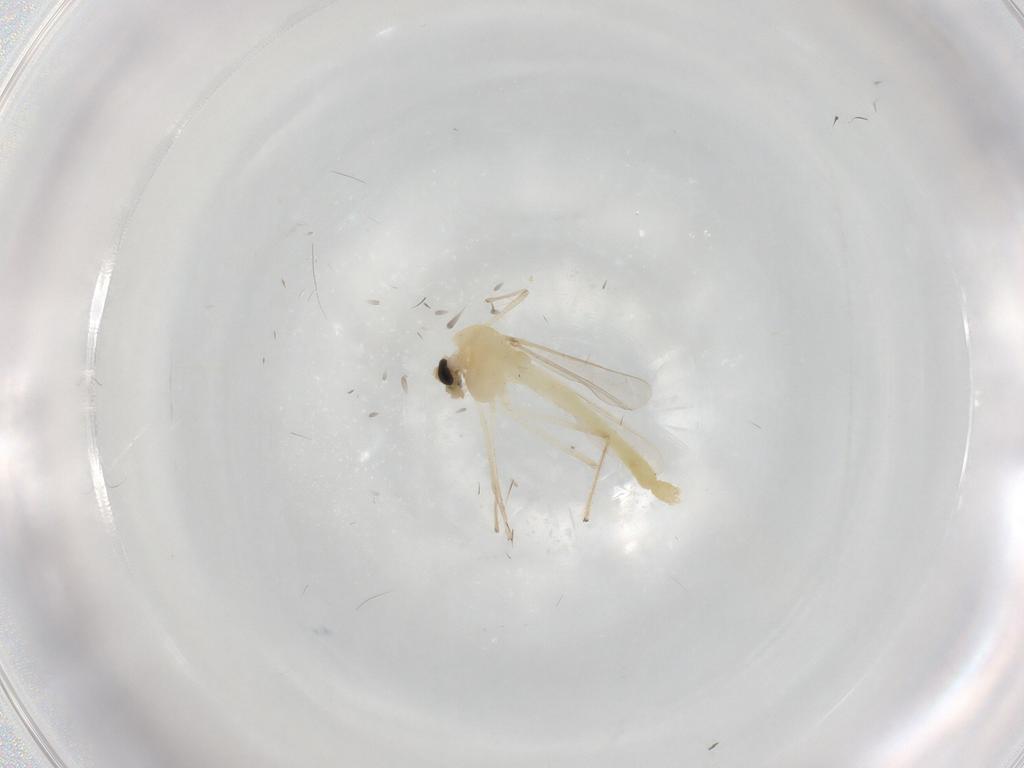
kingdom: Animalia
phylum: Arthropoda
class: Insecta
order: Diptera
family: Chironomidae
